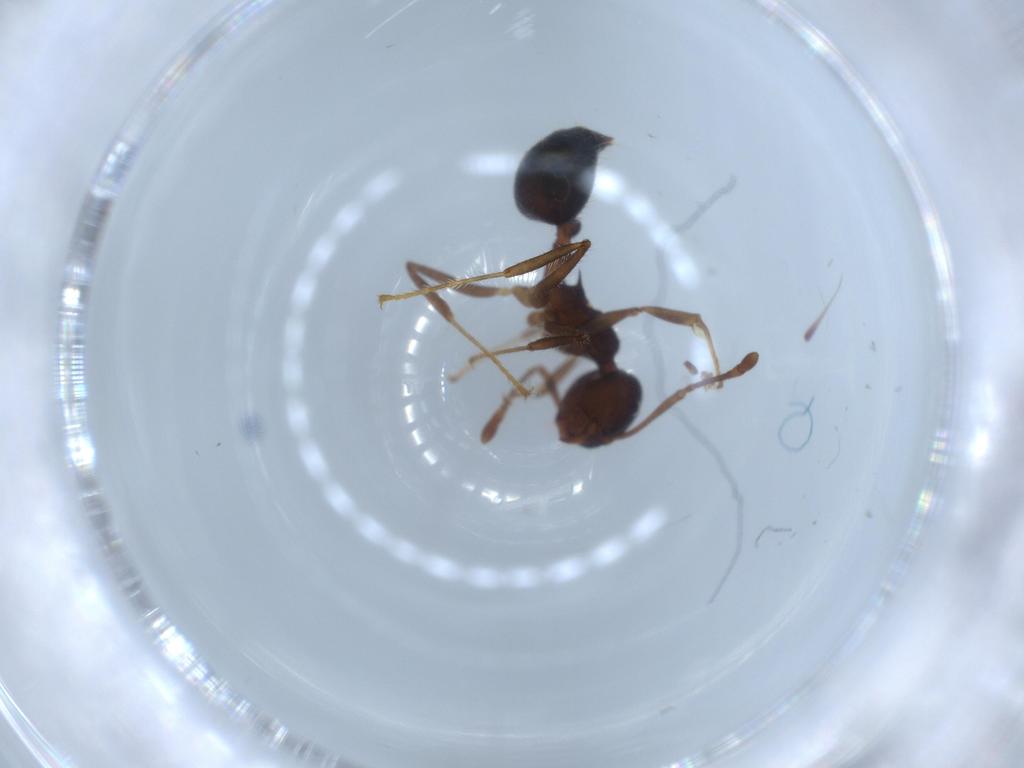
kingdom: Animalia
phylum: Arthropoda
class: Insecta
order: Hymenoptera
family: Formicidae
